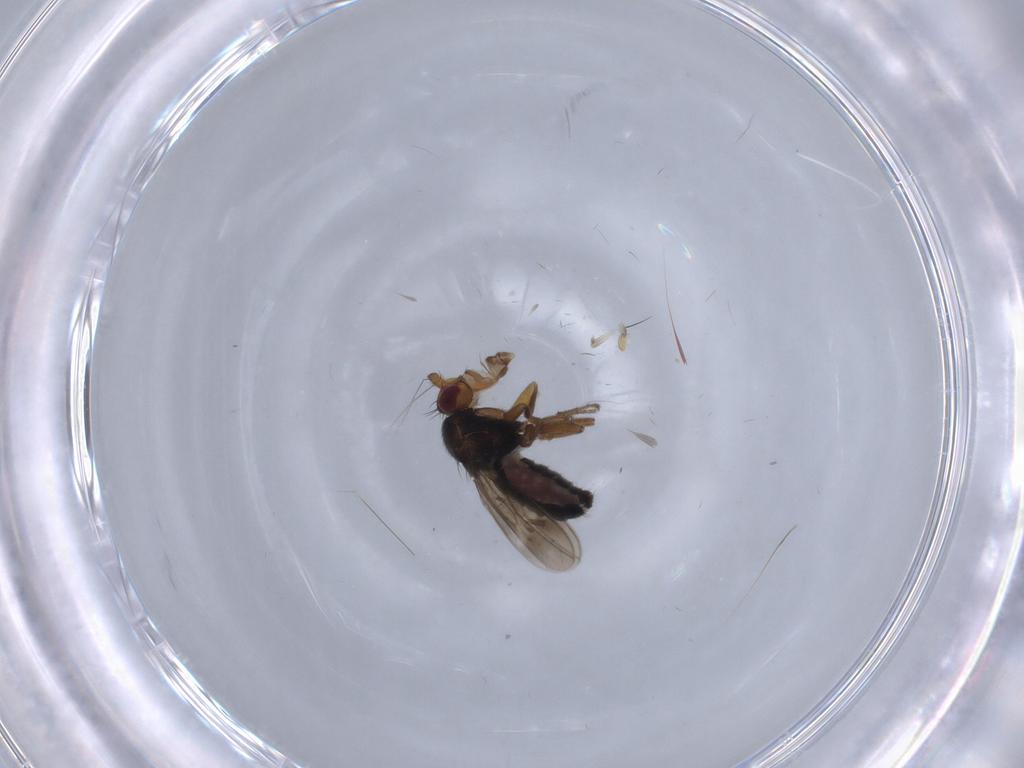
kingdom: Animalia
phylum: Arthropoda
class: Insecta
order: Diptera
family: Sphaeroceridae
